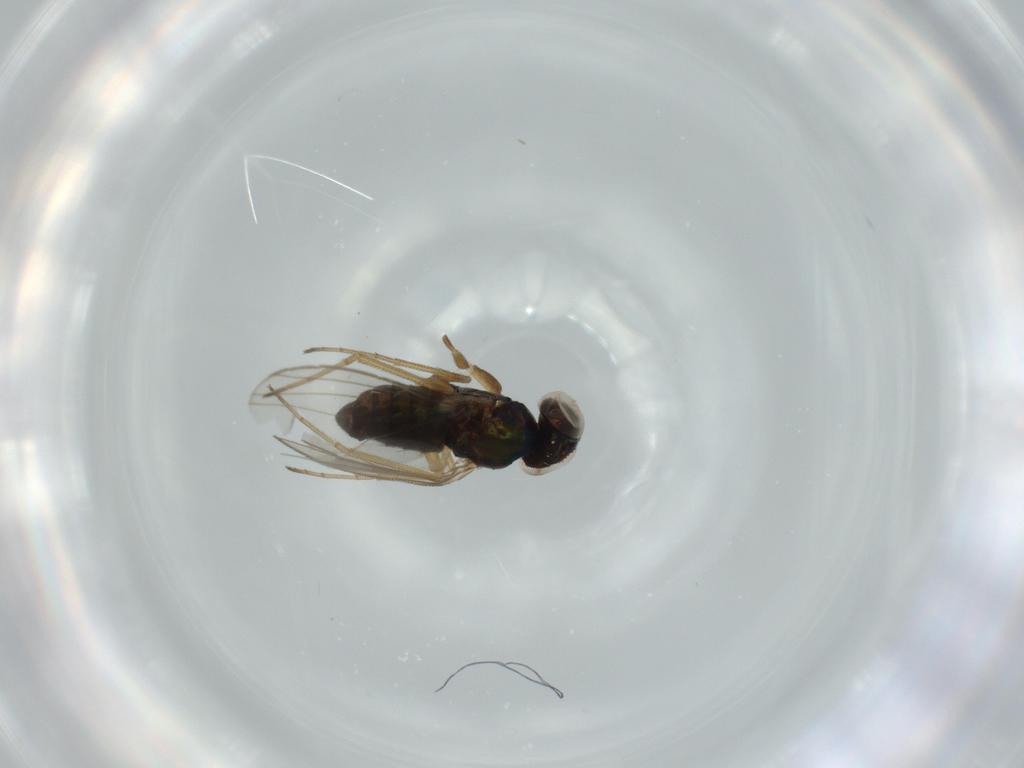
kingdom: Animalia
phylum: Arthropoda
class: Insecta
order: Diptera
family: Dolichopodidae
